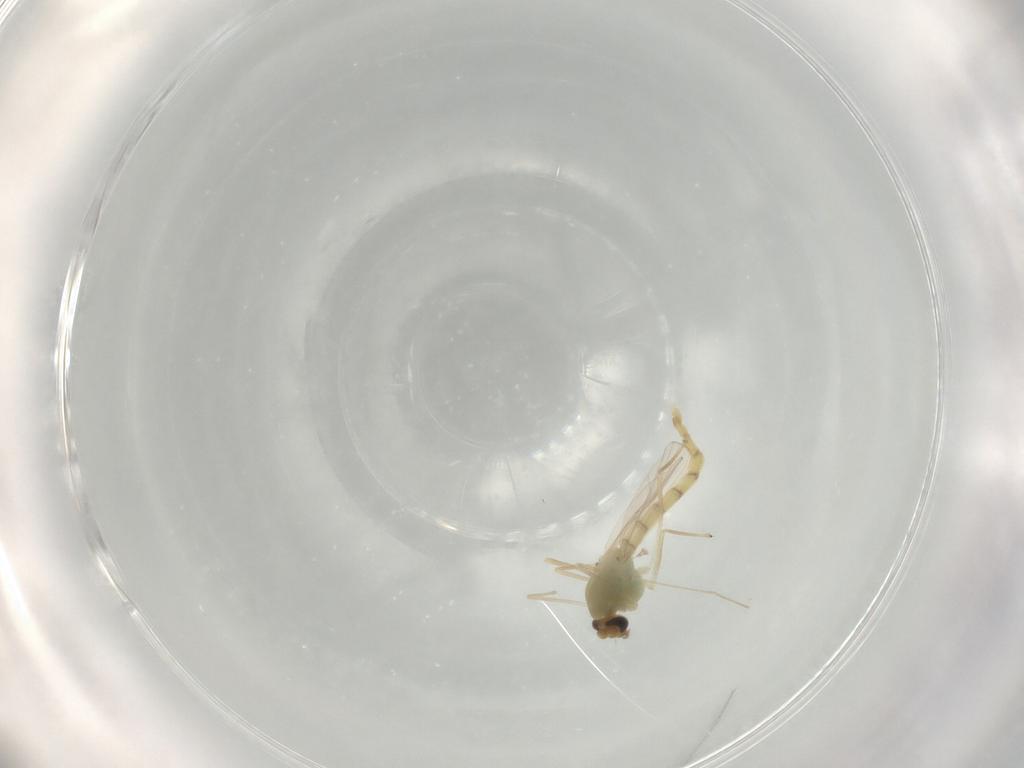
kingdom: Animalia
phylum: Arthropoda
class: Insecta
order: Diptera
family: Chironomidae
